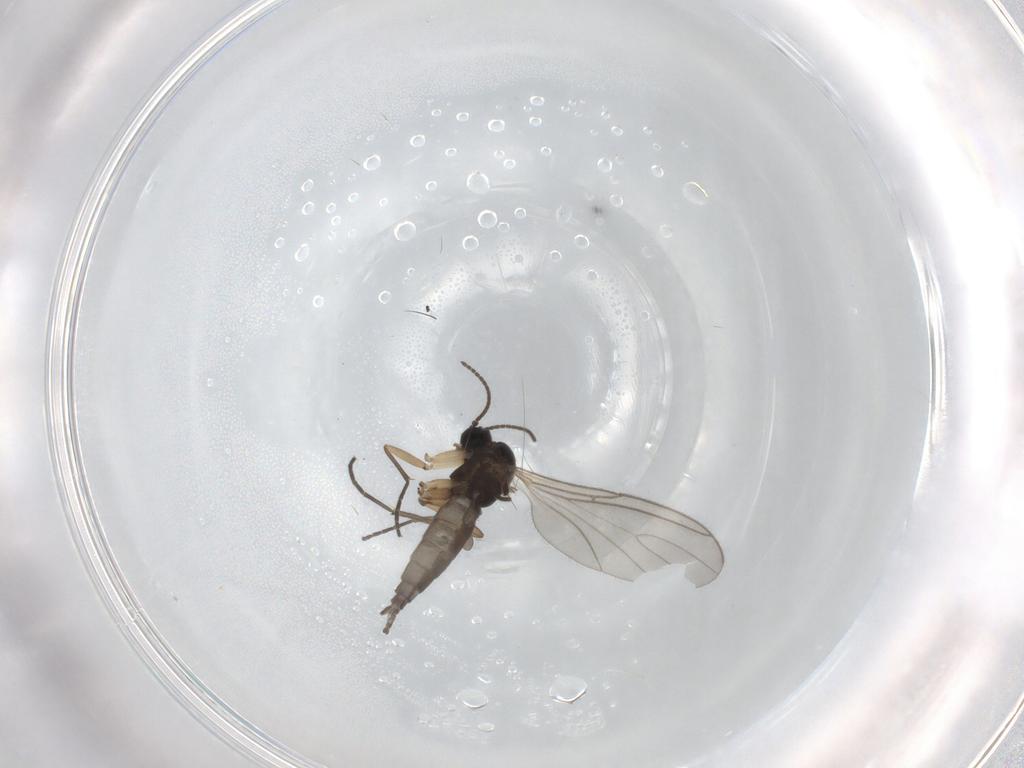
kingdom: Animalia
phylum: Arthropoda
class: Insecta
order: Diptera
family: Sciaridae
